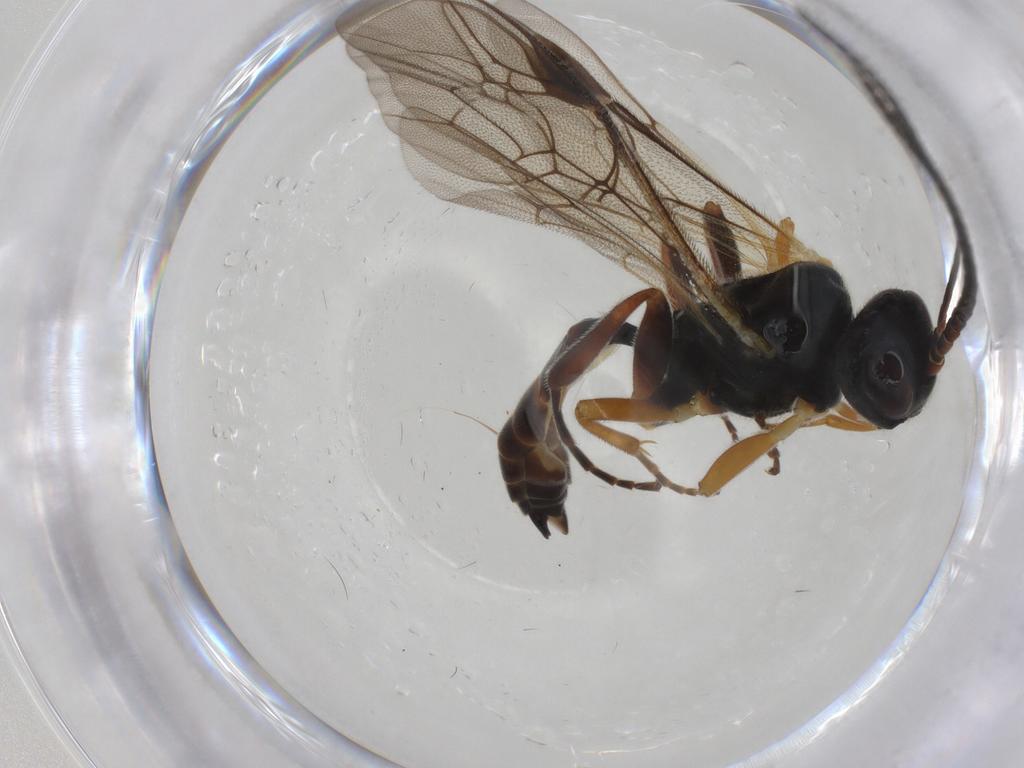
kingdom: Animalia
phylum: Arthropoda
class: Insecta
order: Hymenoptera
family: Ichneumonidae
